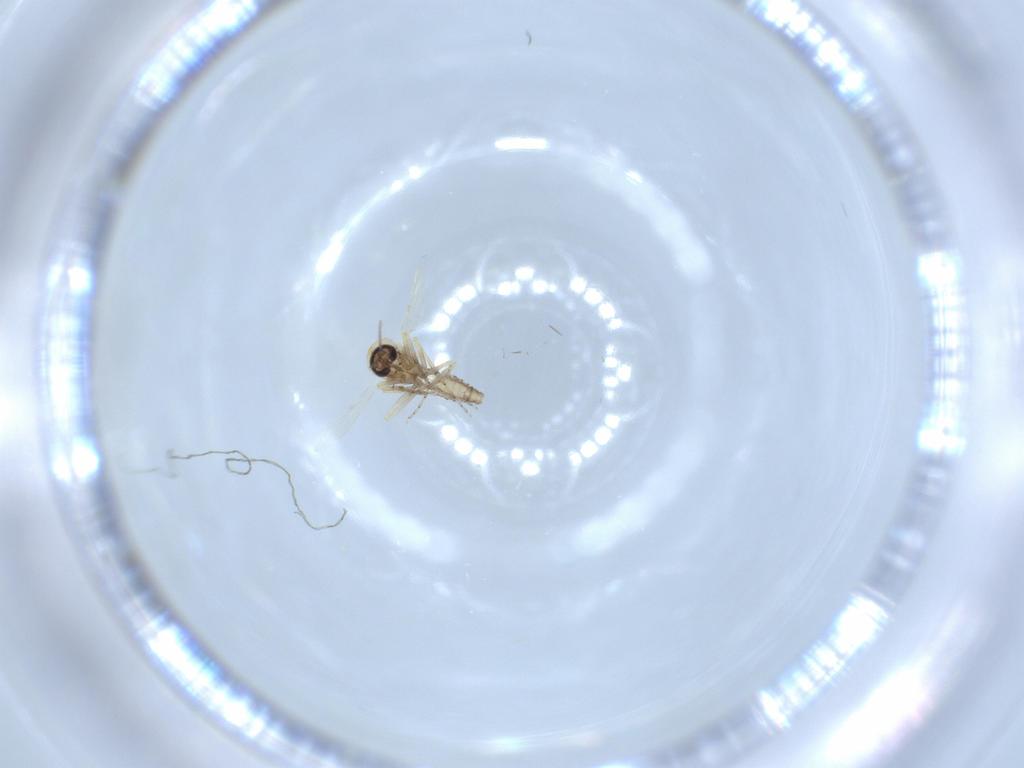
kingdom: Animalia
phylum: Arthropoda
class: Insecta
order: Diptera
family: Ceratopogonidae
